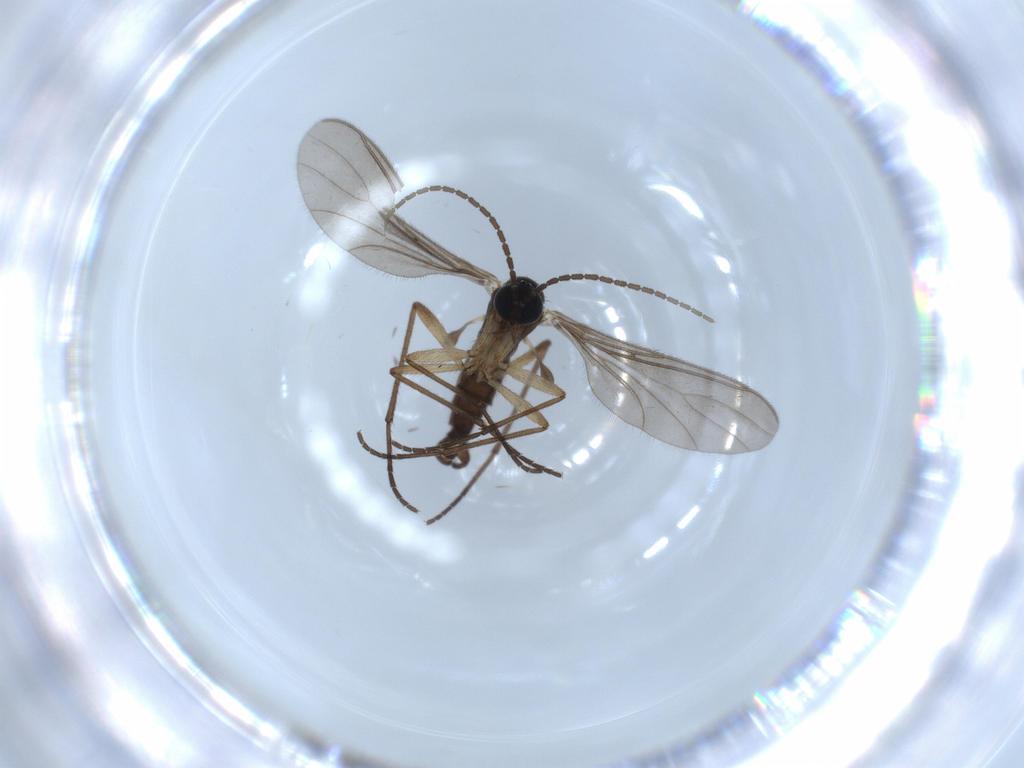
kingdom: Animalia
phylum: Arthropoda
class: Insecta
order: Diptera
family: Sciaridae
